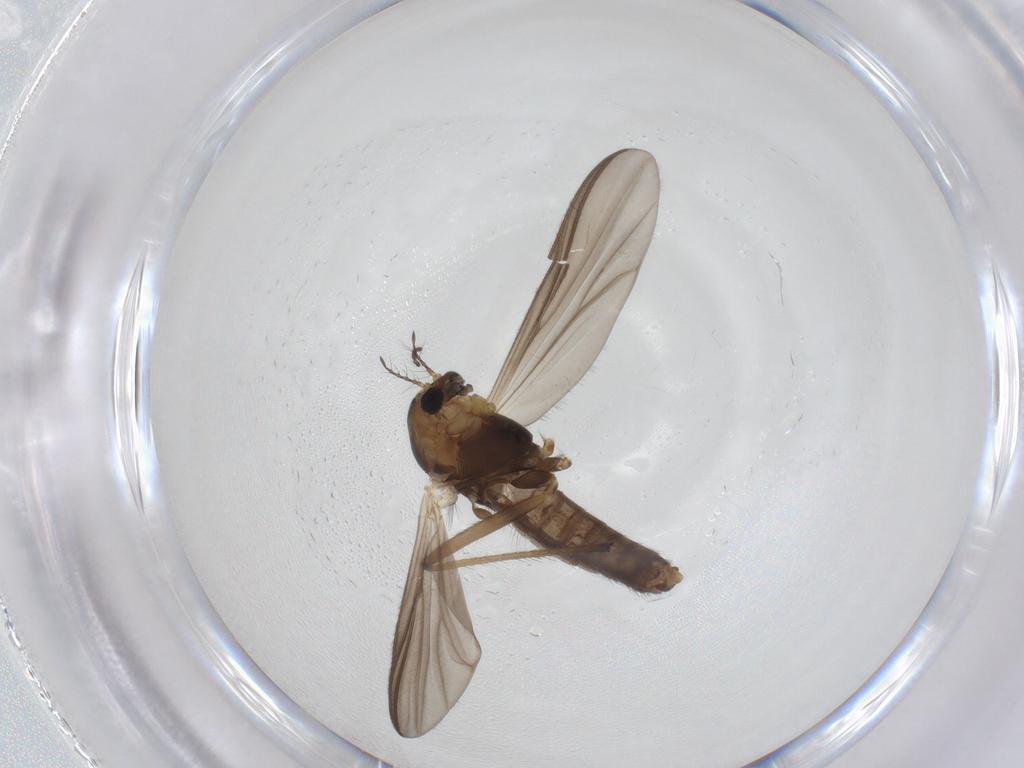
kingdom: Animalia
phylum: Arthropoda
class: Insecta
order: Diptera
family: Chironomidae
